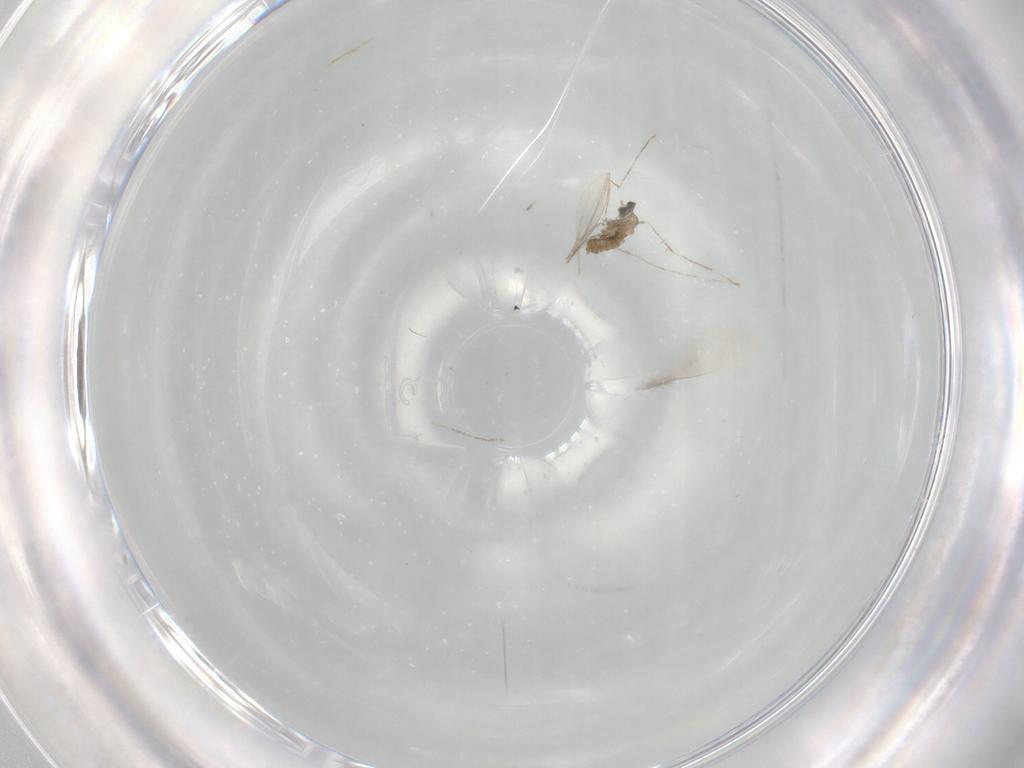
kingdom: Animalia
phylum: Arthropoda
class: Insecta
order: Diptera
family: Cecidomyiidae
